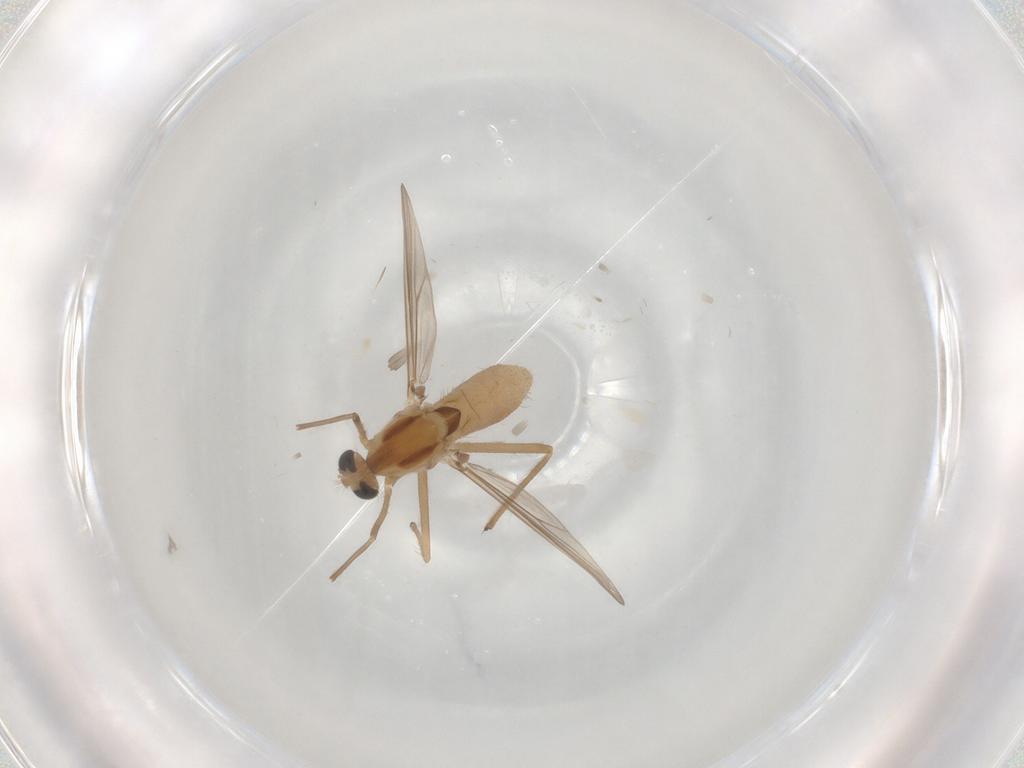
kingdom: Animalia
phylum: Arthropoda
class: Insecta
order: Diptera
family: Chironomidae
